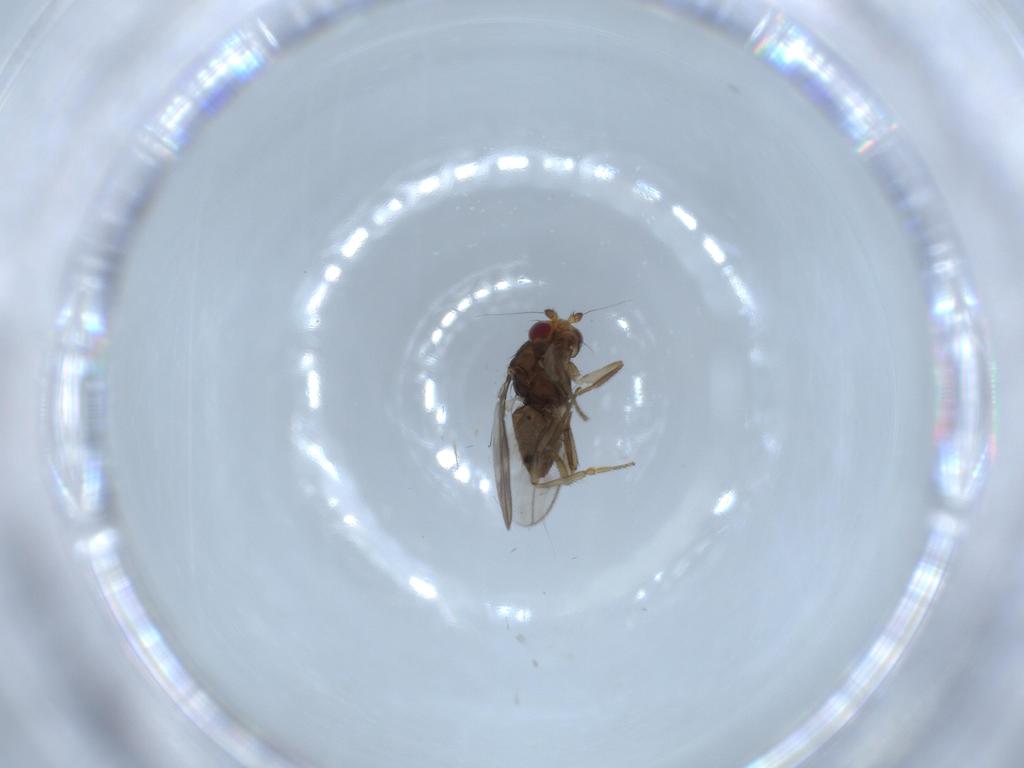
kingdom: Animalia
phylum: Arthropoda
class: Insecta
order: Diptera
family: Sphaeroceridae
